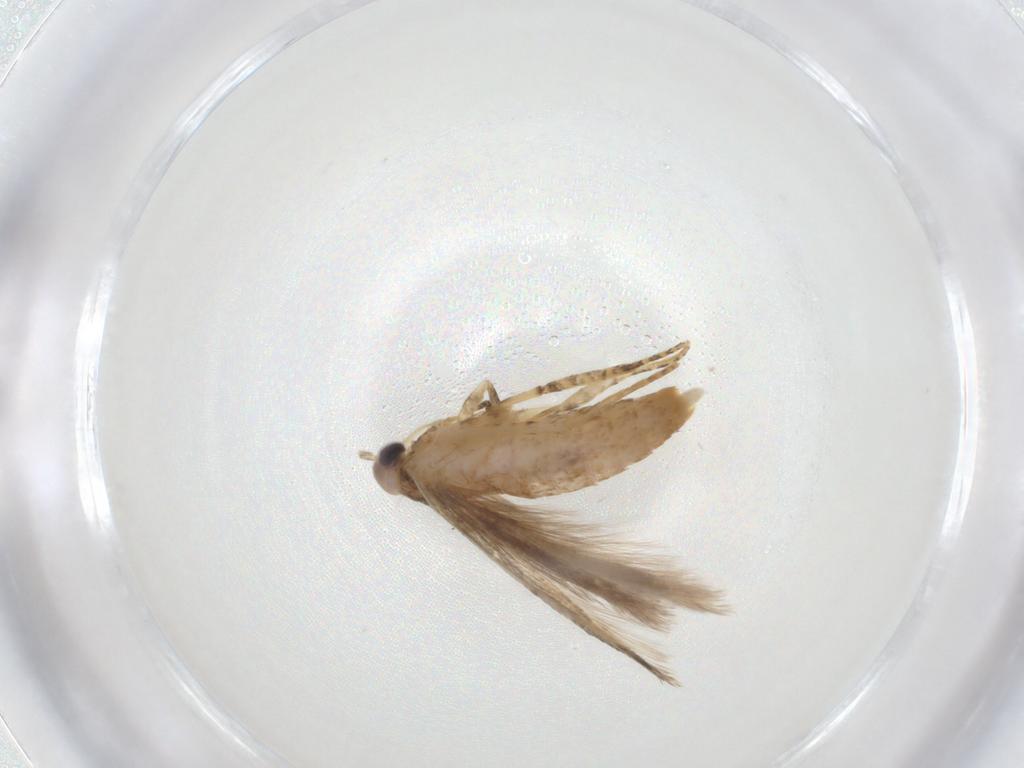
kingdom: Animalia
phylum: Arthropoda
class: Insecta
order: Lepidoptera
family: Gelechiidae
